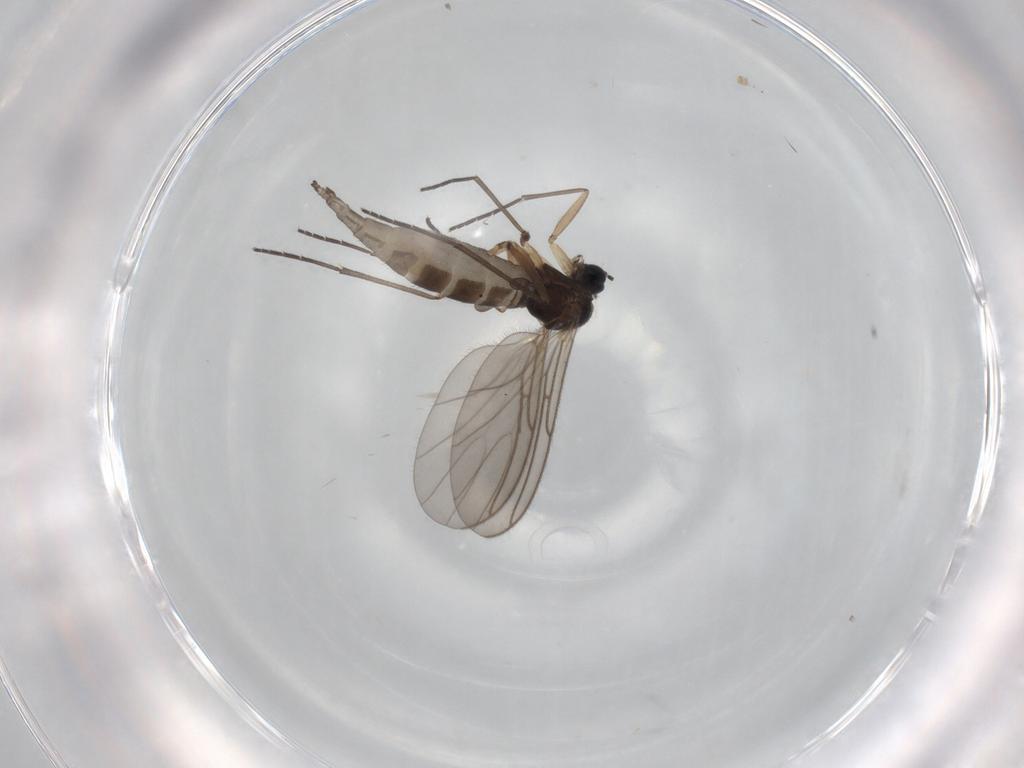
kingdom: Animalia
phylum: Arthropoda
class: Insecta
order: Diptera
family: Sciaridae
